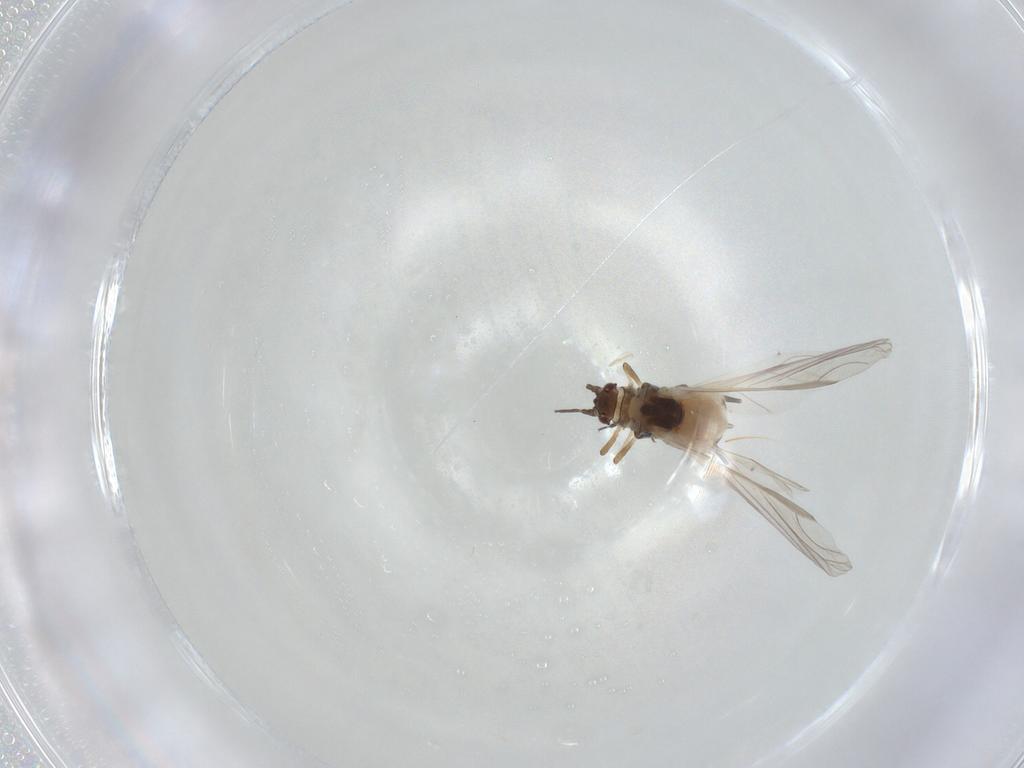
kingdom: Animalia
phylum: Arthropoda
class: Insecta
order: Hemiptera
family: Aphididae
